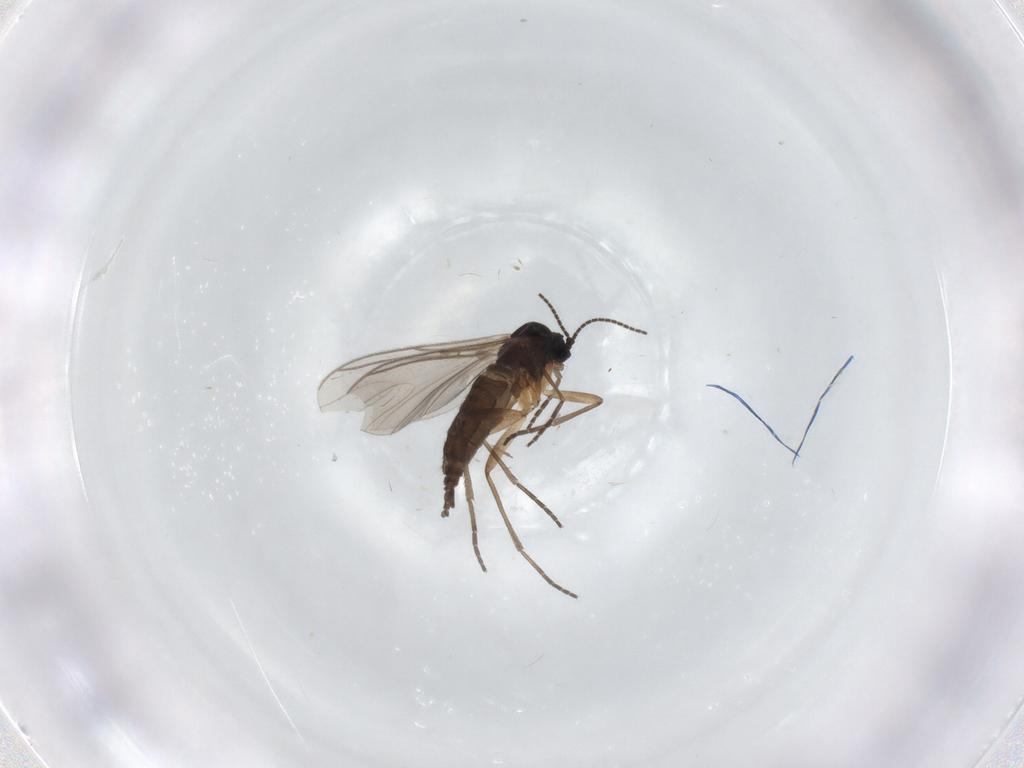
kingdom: Animalia
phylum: Arthropoda
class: Insecta
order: Diptera
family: Sciaridae
